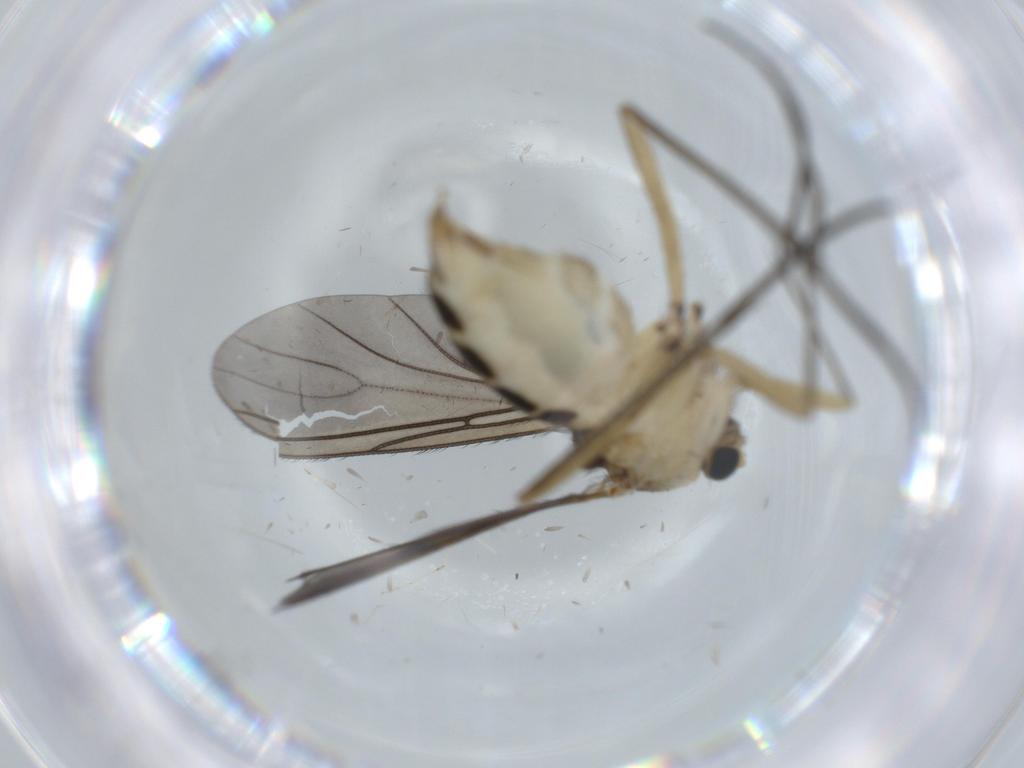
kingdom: Animalia
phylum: Arthropoda
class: Insecta
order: Diptera
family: Sciaridae
